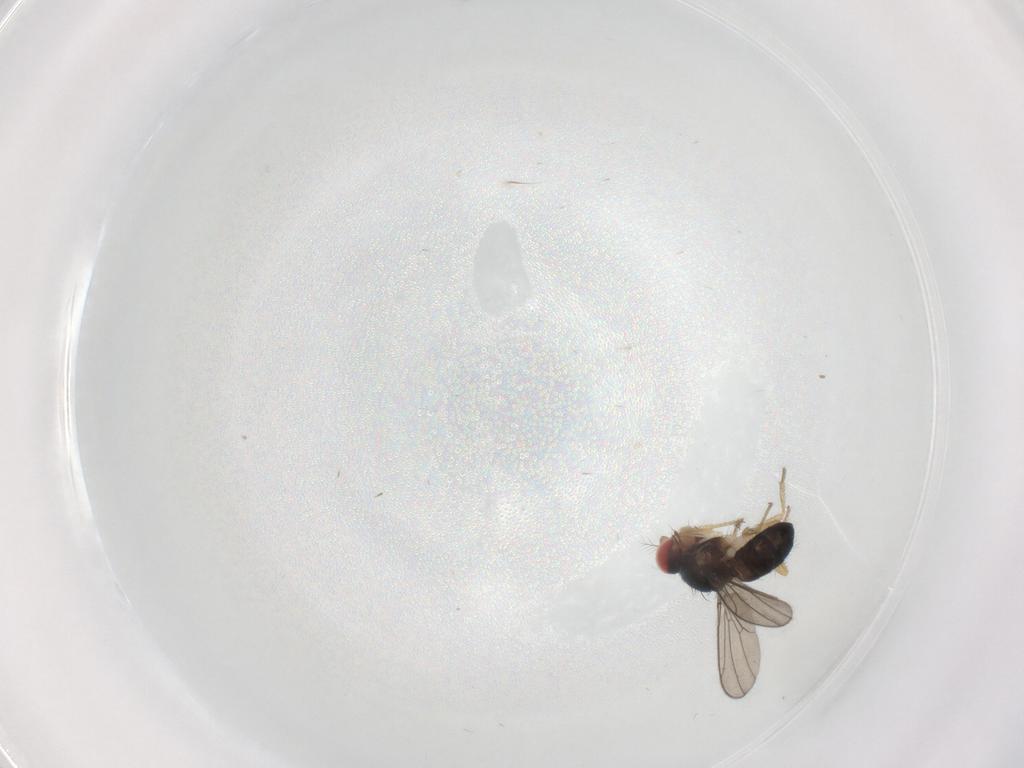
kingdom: Animalia
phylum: Arthropoda
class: Insecta
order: Diptera
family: Drosophilidae
